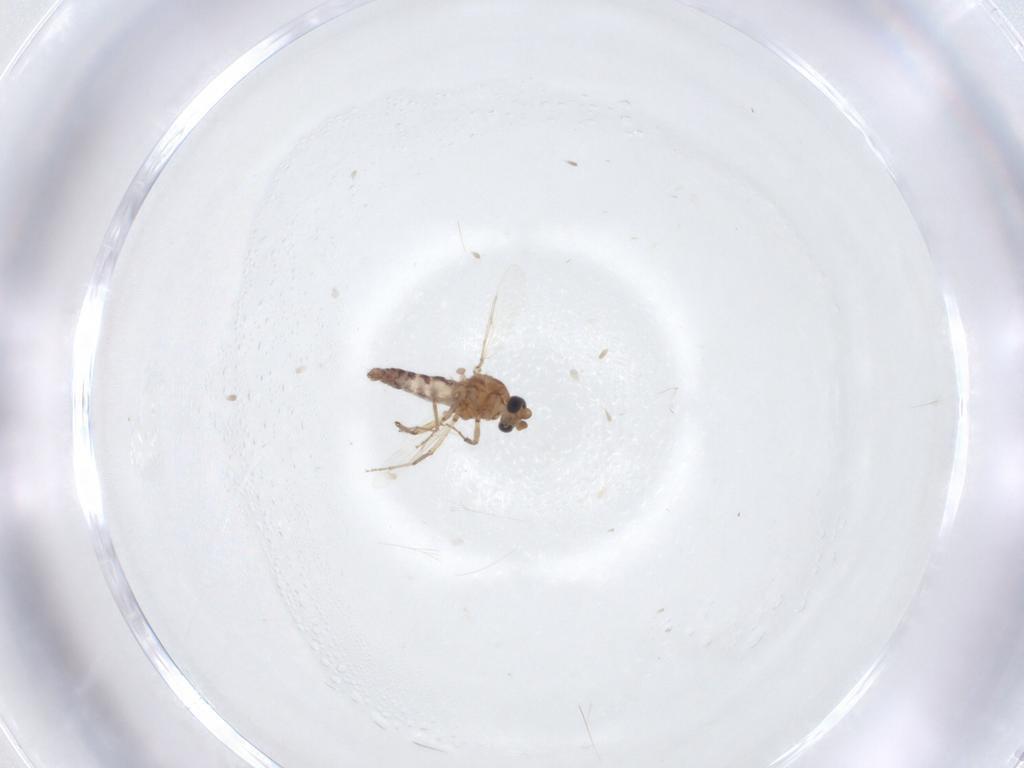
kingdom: Animalia
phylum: Arthropoda
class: Insecta
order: Diptera
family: Ceratopogonidae
